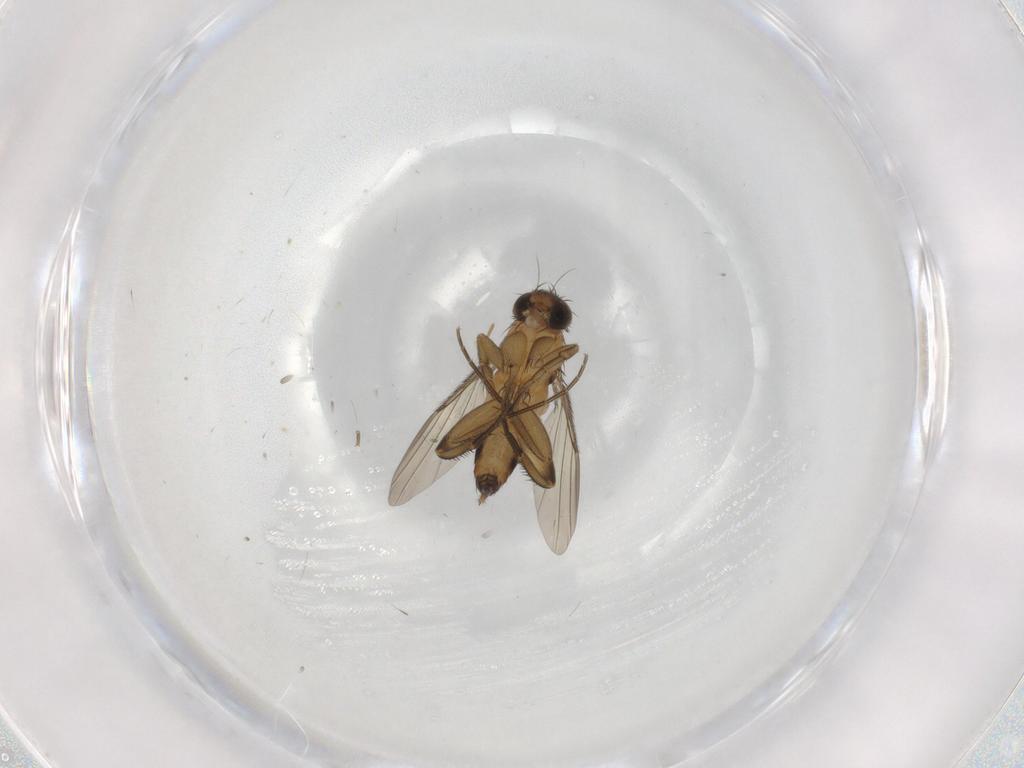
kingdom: Animalia
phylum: Arthropoda
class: Insecta
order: Diptera
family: Phoridae
